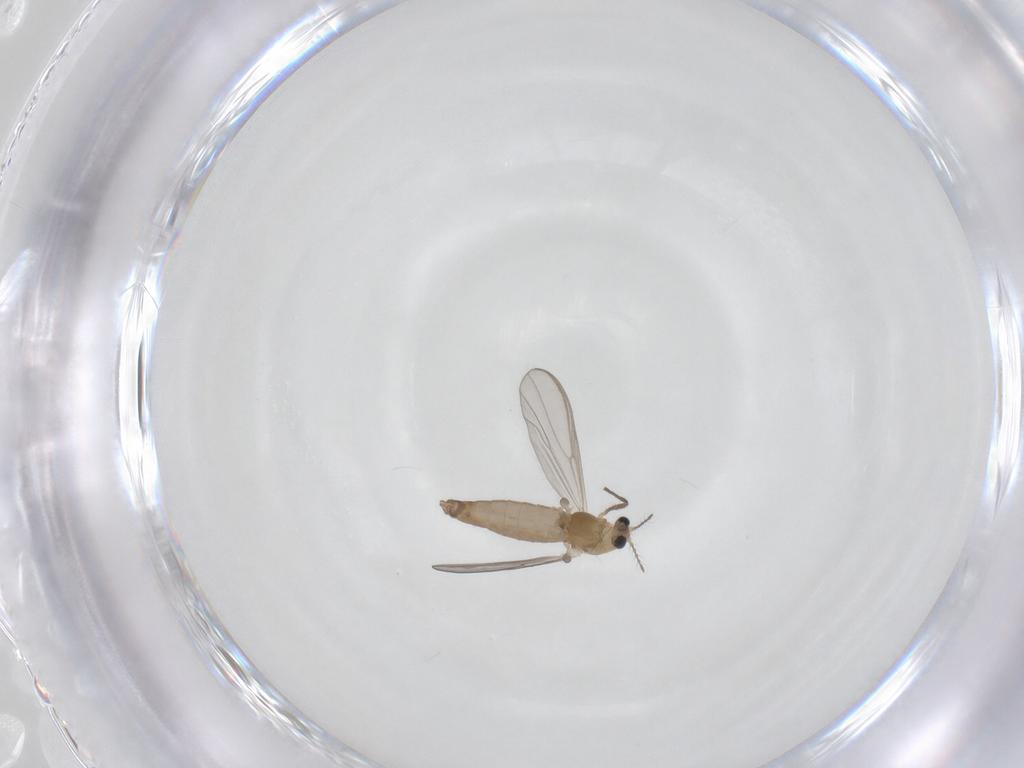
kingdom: Animalia
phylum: Arthropoda
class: Insecta
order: Diptera
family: Chironomidae
